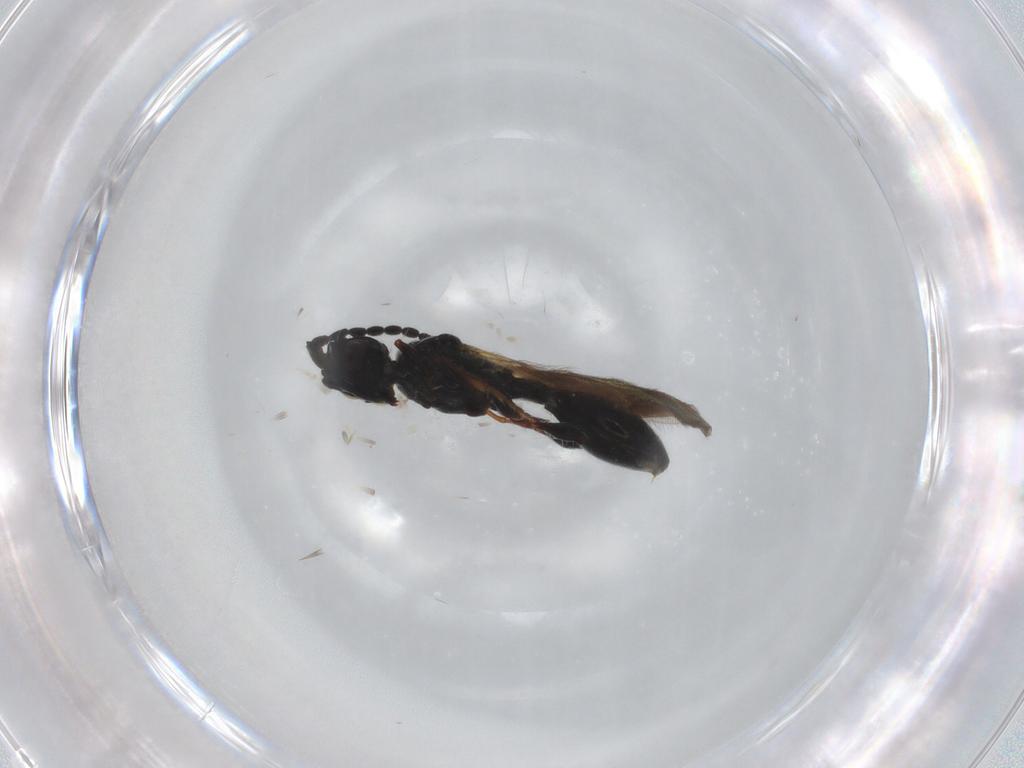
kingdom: Animalia
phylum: Arthropoda
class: Insecta
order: Hymenoptera
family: Diapriidae
